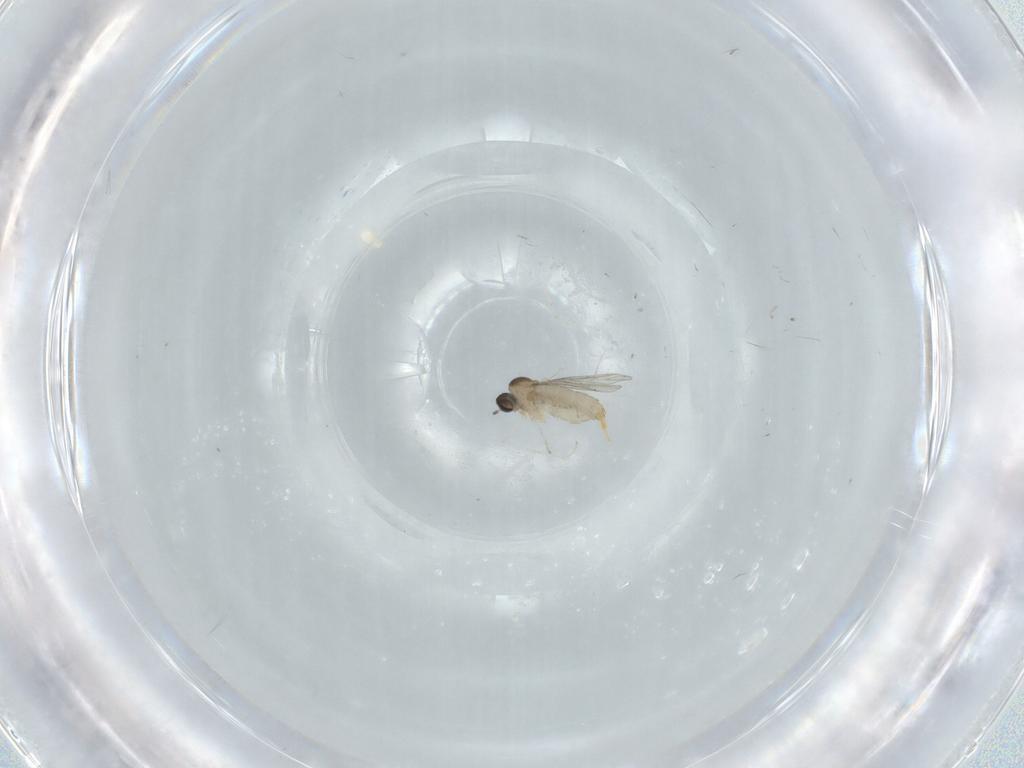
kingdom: Animalia
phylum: Arthropoda
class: Insecta
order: Diptera
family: Cecidomyiidae
